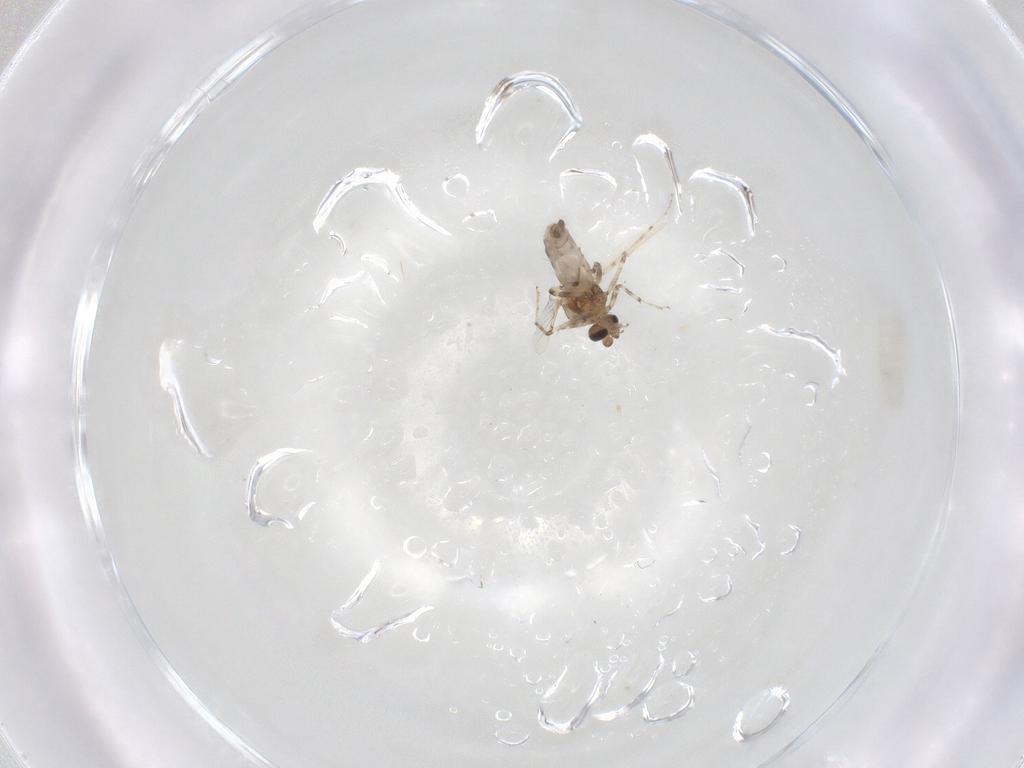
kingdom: Animalia
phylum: Arthropoda
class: Insecta
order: Diptera
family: Ceratopogonidae
